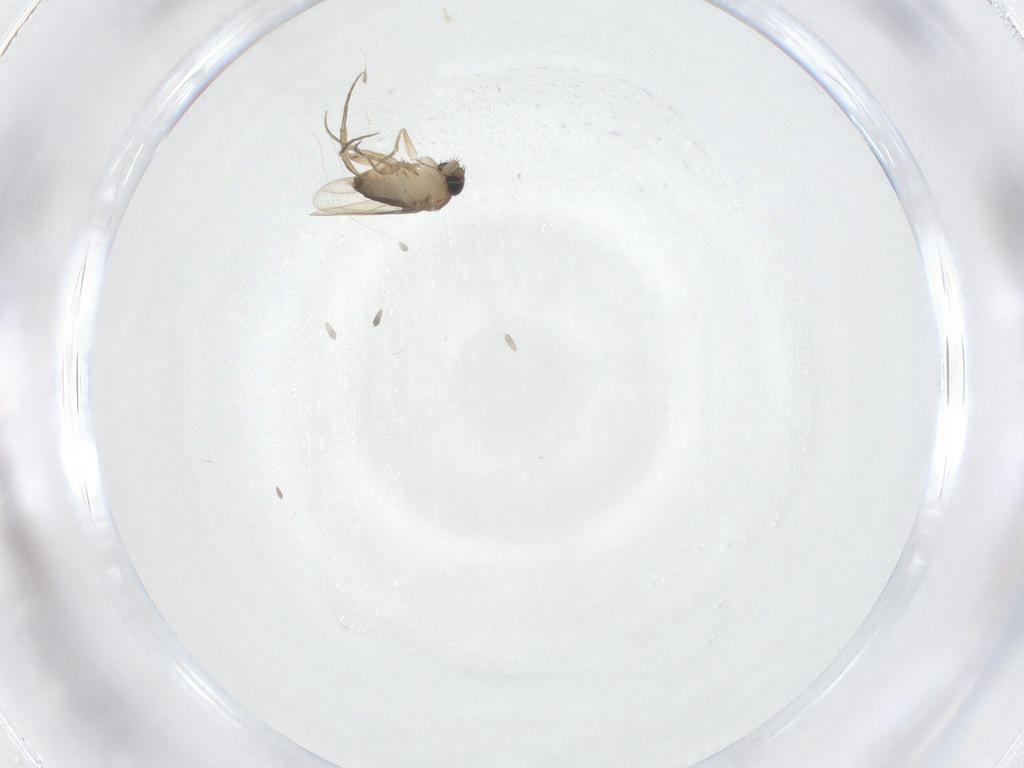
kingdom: Animalia
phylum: Arthropoda
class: Insecta
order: Diptera
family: Phoridae
